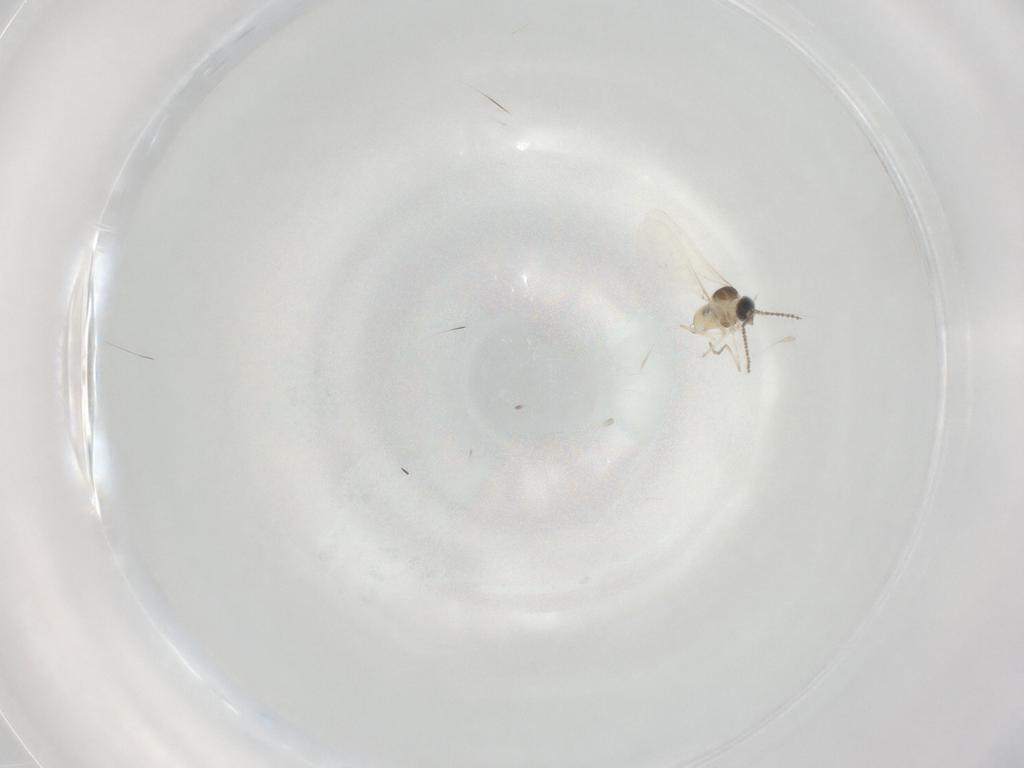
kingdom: Animalia
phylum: Arthropoda
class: Insecta
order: Diptera
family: Cecidomyiidae
